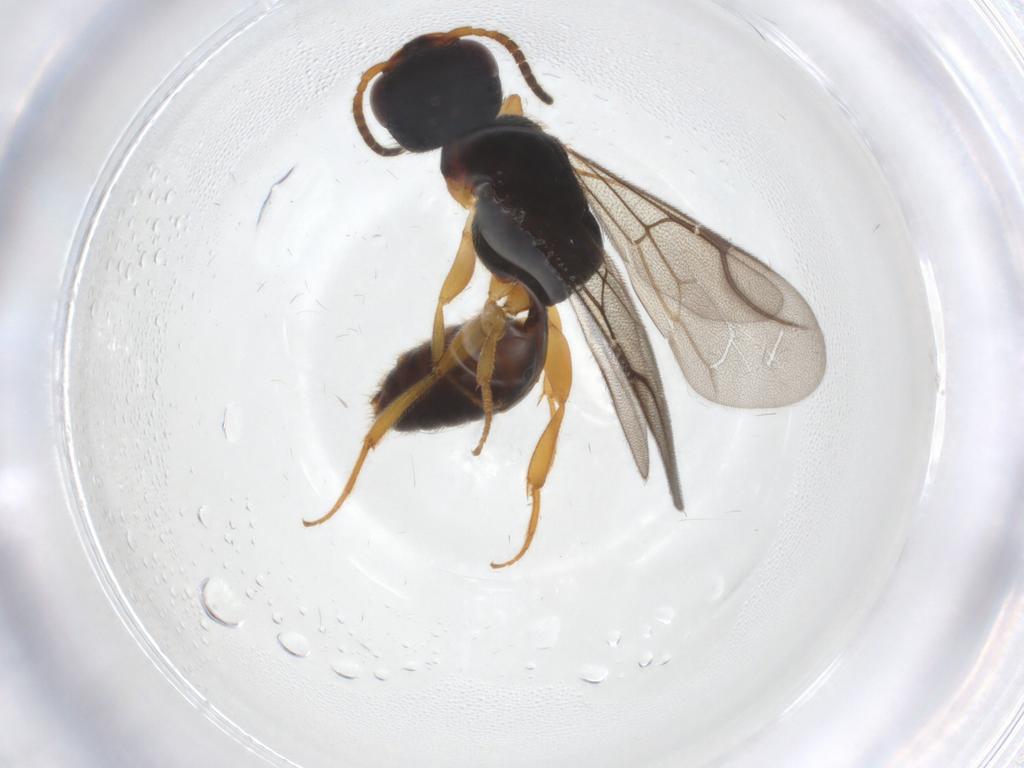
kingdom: Animalia
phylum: Arthropoda
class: Insecta
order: Hymenoptera
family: Bethylidae
